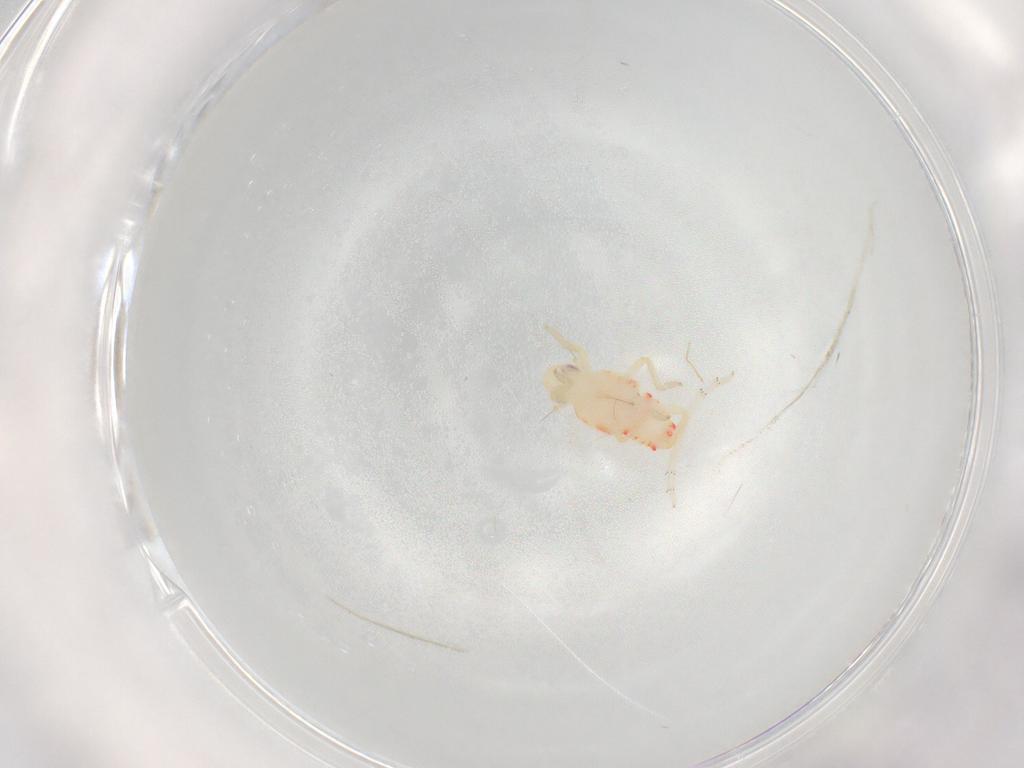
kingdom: Animalia
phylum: Arthropoda
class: Insecta
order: Hemiptera
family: Tropiduchidae
